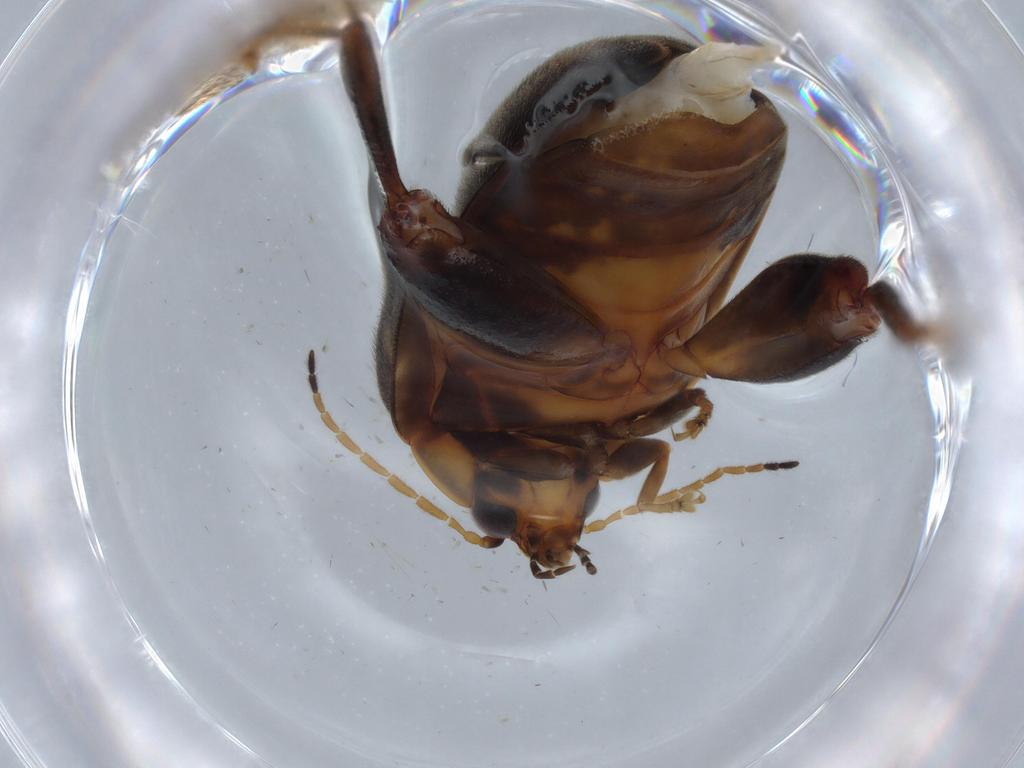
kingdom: Animalia
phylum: Arthropoda
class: Insecta
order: Coleoptera
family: Scirtidae
